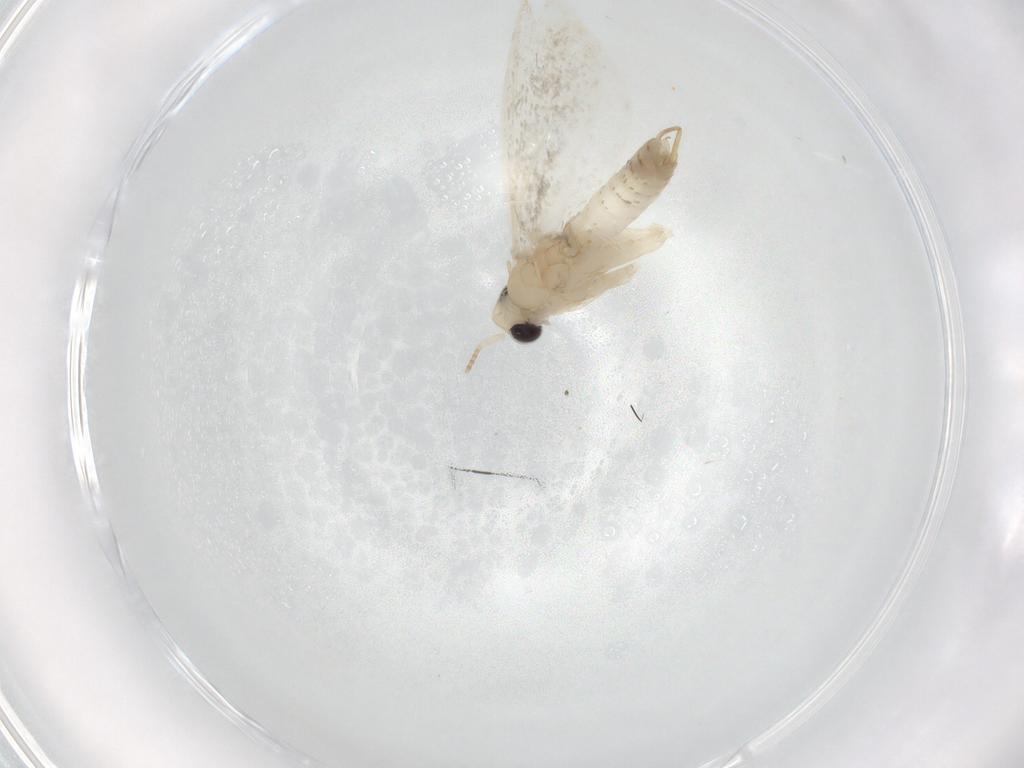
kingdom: Animalia
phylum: Arthropoda
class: Insecta
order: Lepidoptera
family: Psychidae
